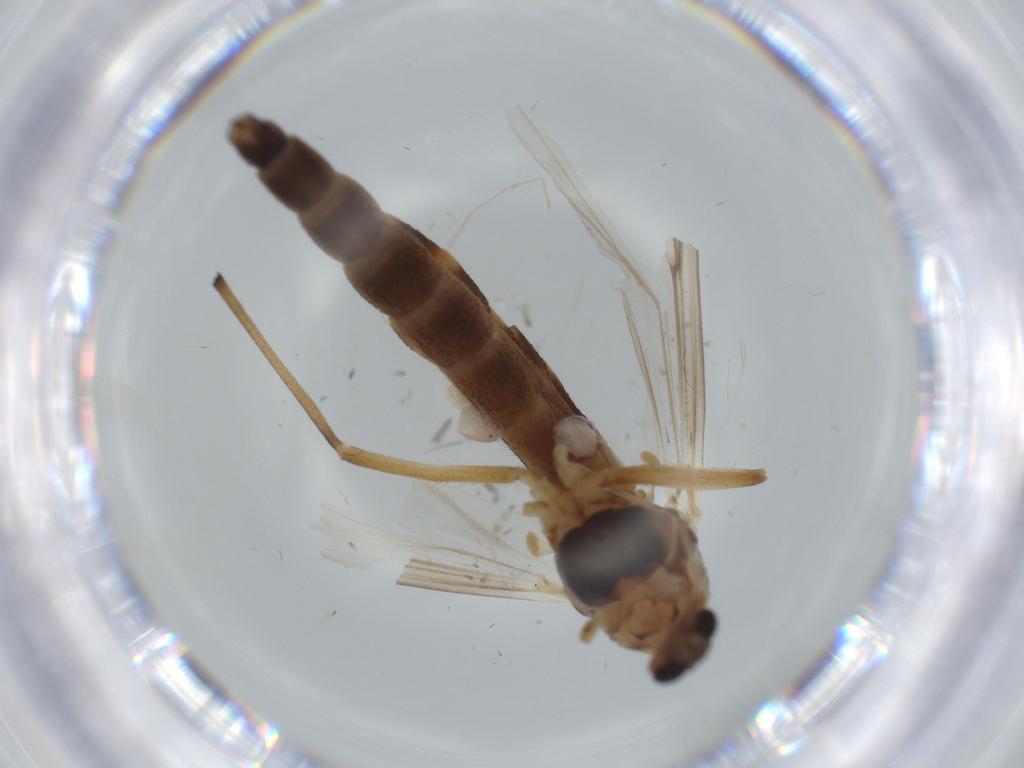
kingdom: Animalia
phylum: Arthropoda
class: Insecta
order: Diptera
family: Chironomidae
